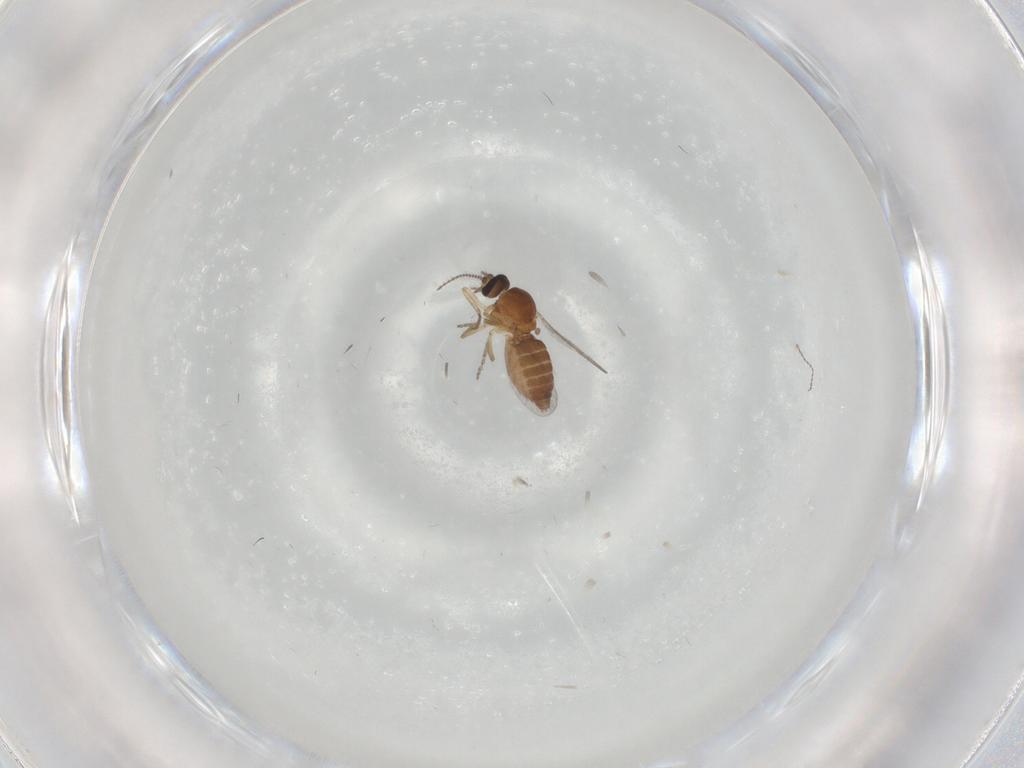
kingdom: Animalia
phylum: Arthropoda
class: Insecta
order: Diptera
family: Ceratopogonidae
